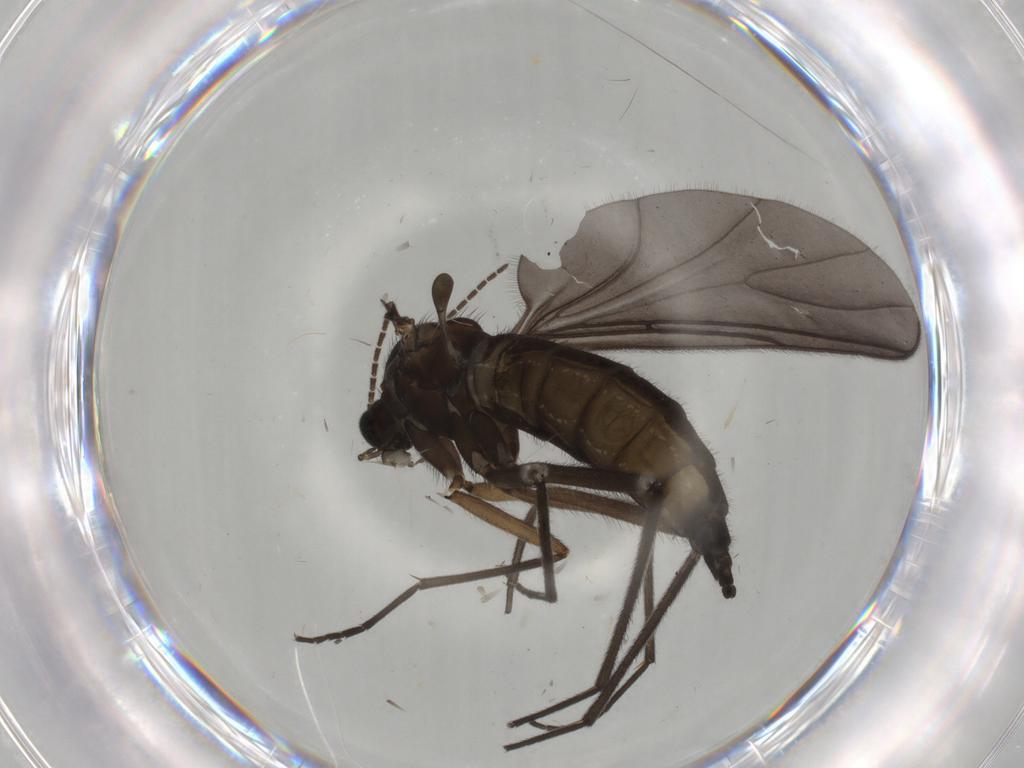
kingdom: Animalia
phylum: Arthropoda
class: Insecta
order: Diptera
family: Sciaridae
